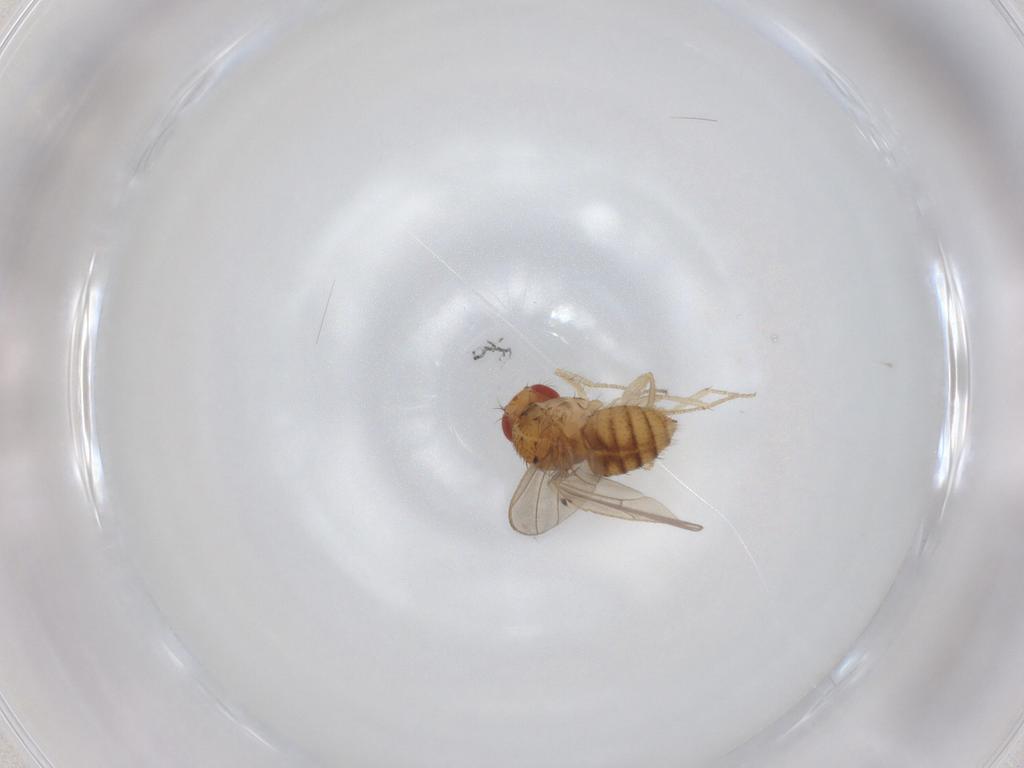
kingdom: Animalia
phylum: Arthropoda
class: Insecta
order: Diptera
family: Drosophilidae
